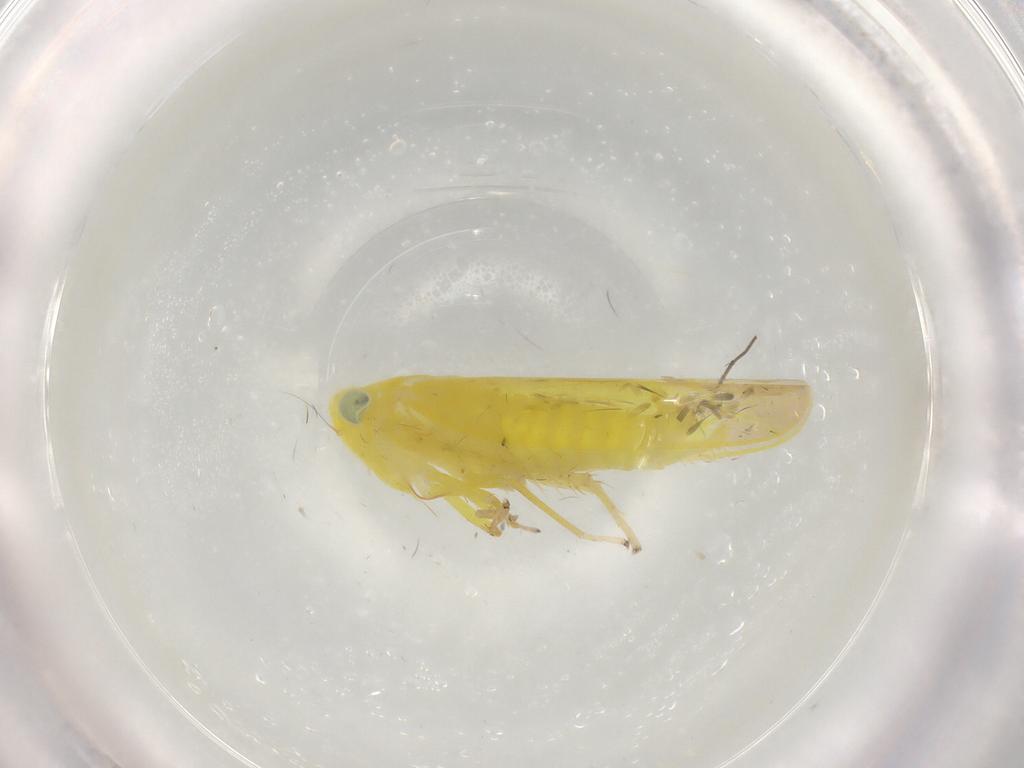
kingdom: Animalia
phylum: Arthropoda
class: Insecta
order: Hemiptera
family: Cicadellidae
